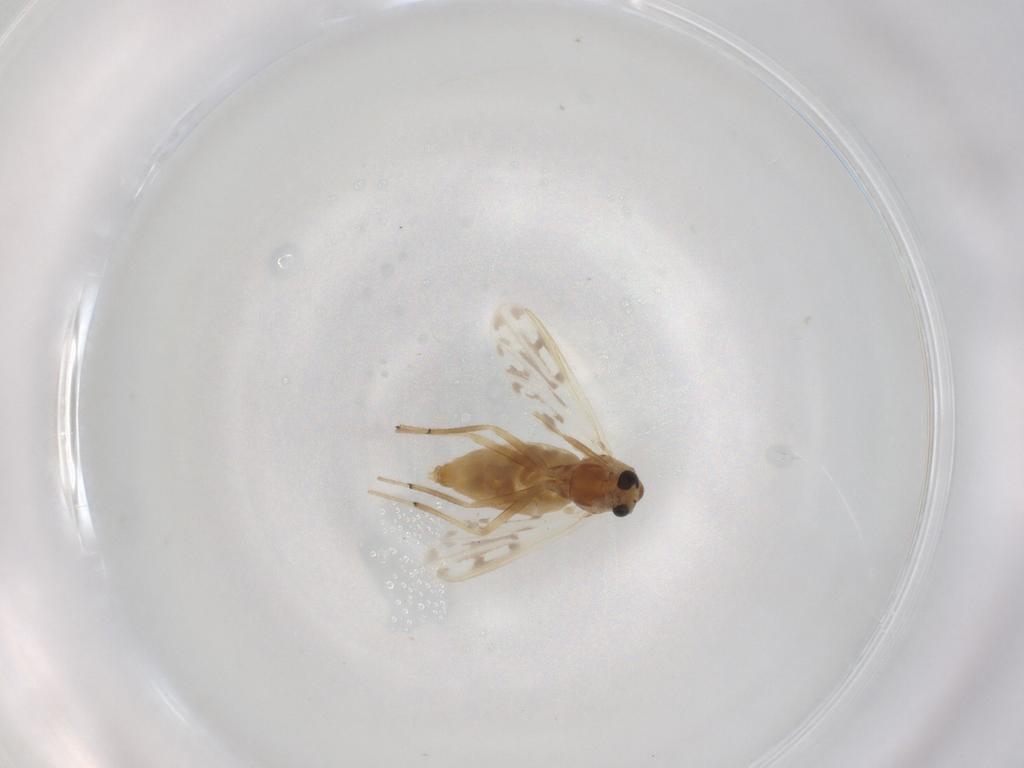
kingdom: Animalia
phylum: Arthropoda
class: Insecta
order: Diptera
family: Chironomidae
